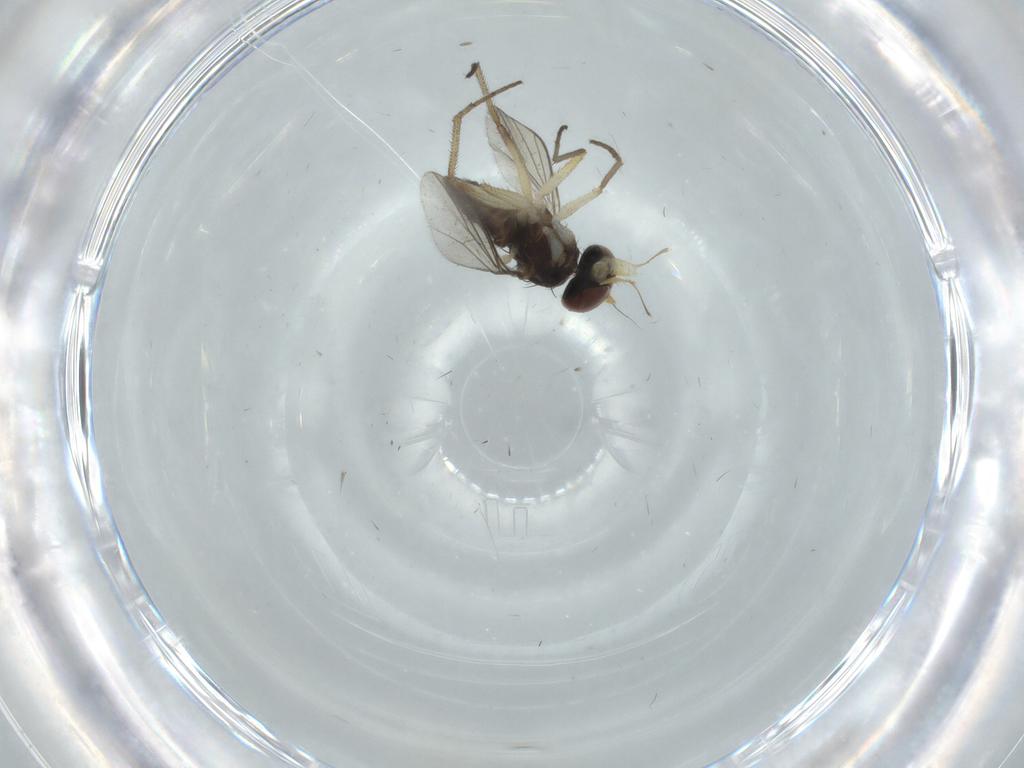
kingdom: Animalia
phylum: Arthropoda
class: Insecta
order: Diptera
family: Dolichopodidae
